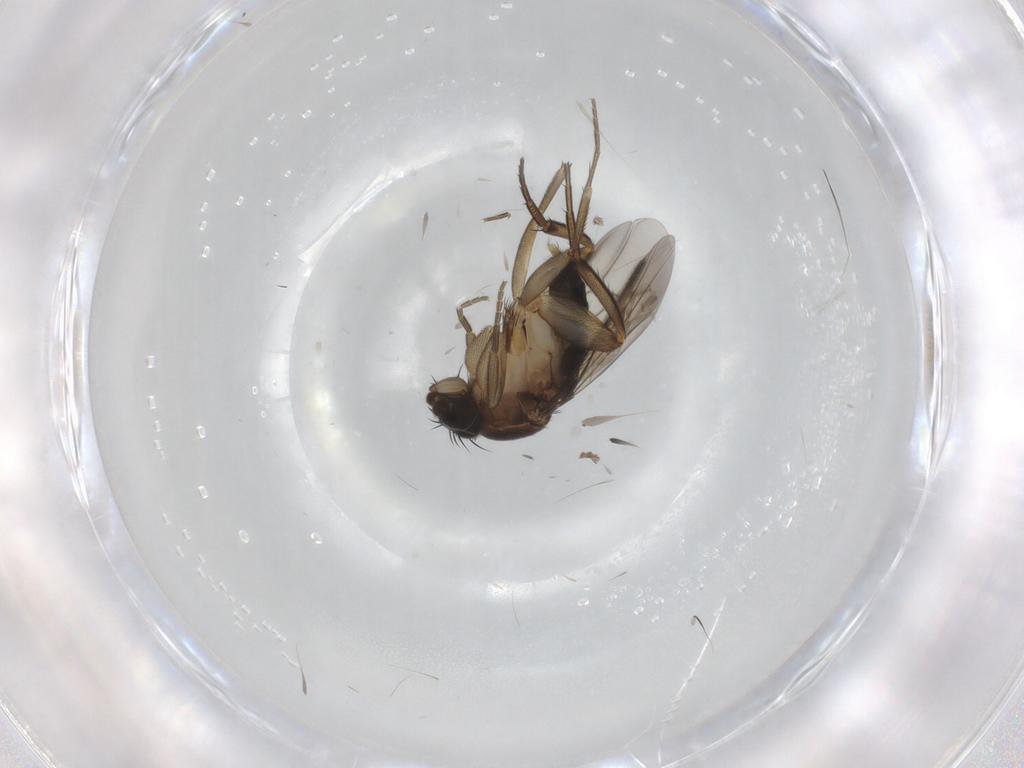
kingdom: Animalia
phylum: Arthropoda
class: Insecta
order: Diptera
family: Phoridae
